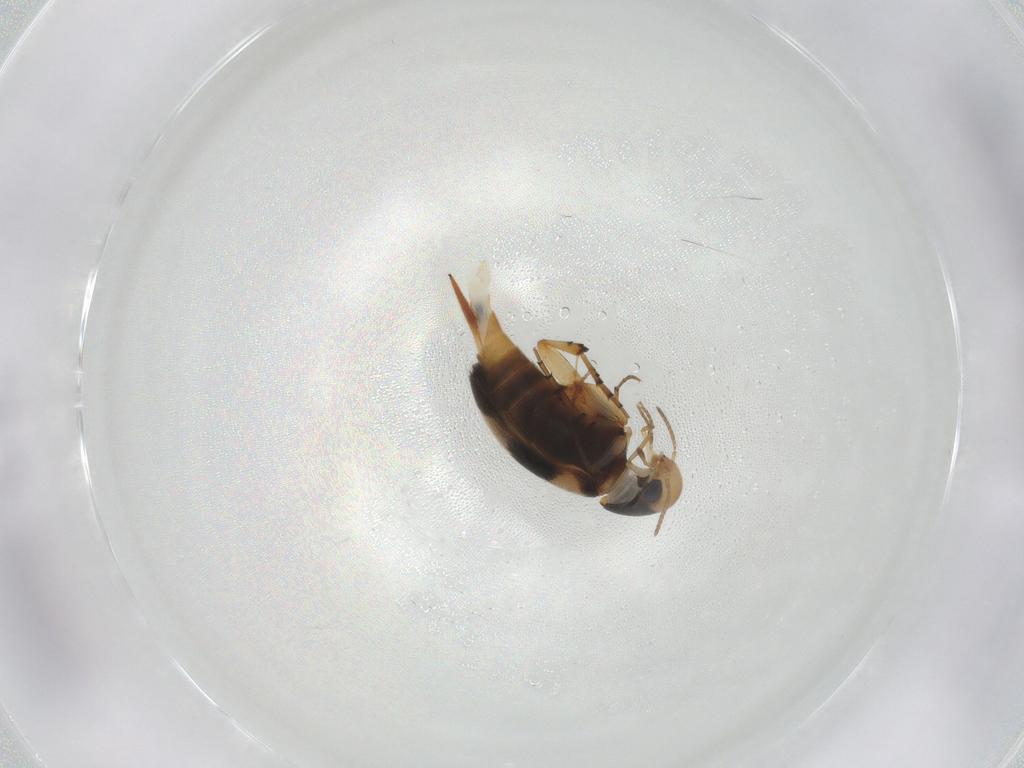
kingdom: Animalia
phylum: Arthropoda
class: Insecta
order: Coleoptera
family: Mordellidae
